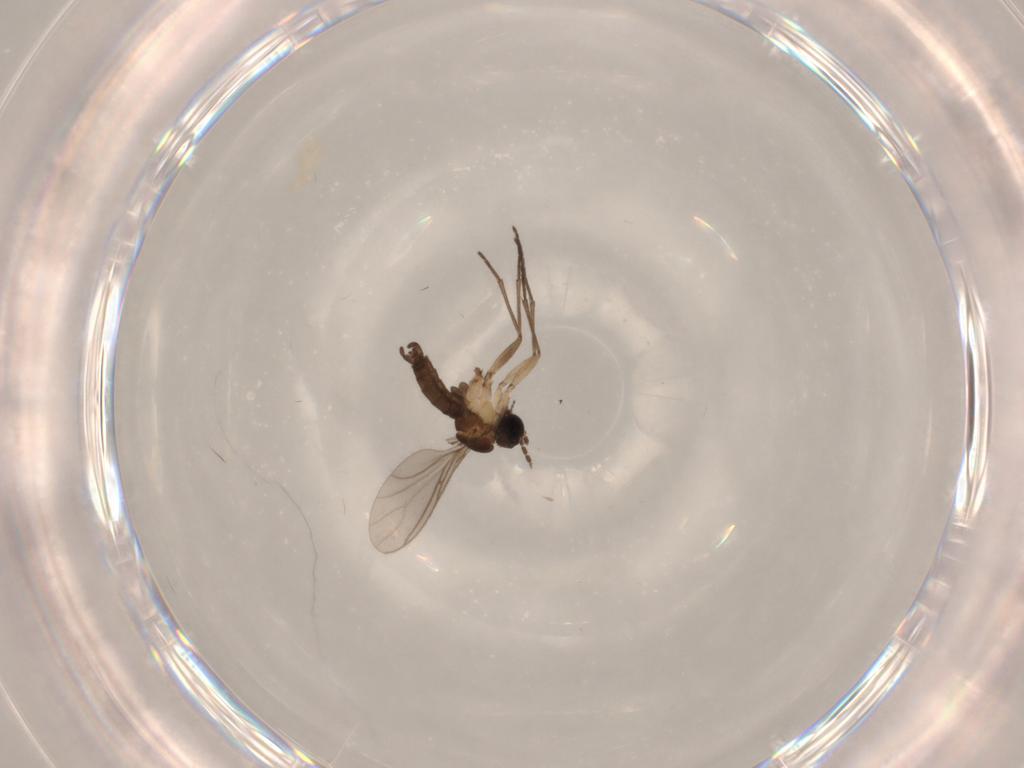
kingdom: Animalia
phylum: Arthropoda
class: Insecta
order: Diptera
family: Sciaridae
